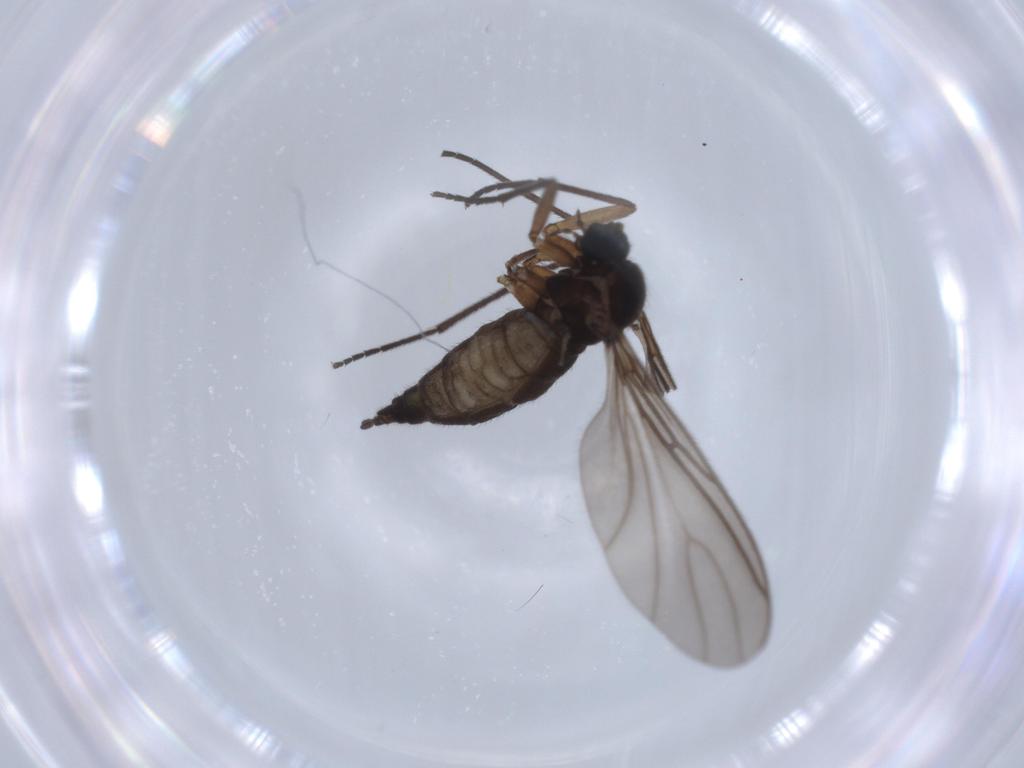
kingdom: Animalia
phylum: Arthropoda
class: Insecta
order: Diptera
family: Sciaridae
